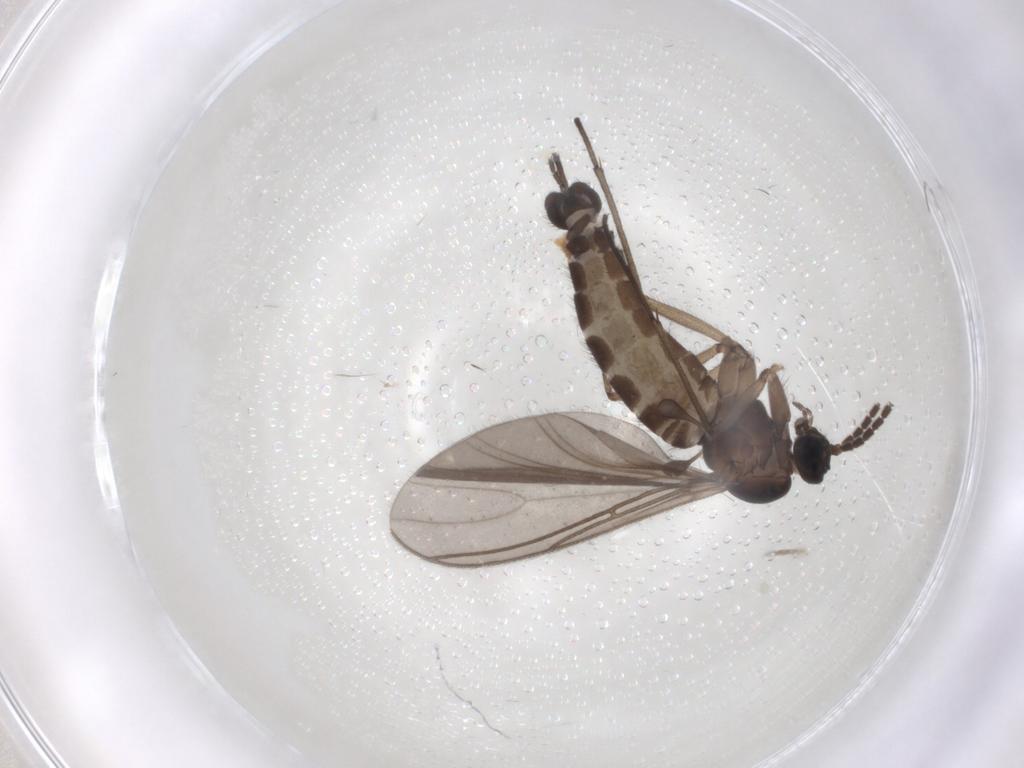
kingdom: Animalia
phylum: Arthropoda
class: Insecta
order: Diptera
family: Sciaridae
